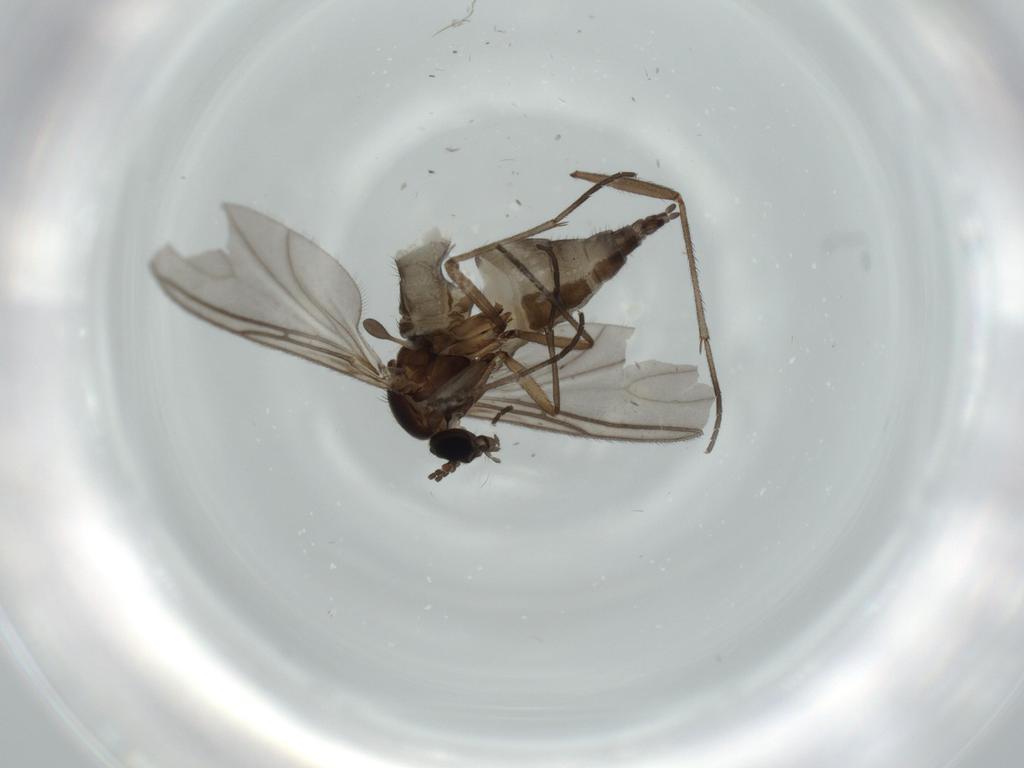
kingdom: Animalia
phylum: Arthropoda
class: Insecta
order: Diptera
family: Sciaridae
